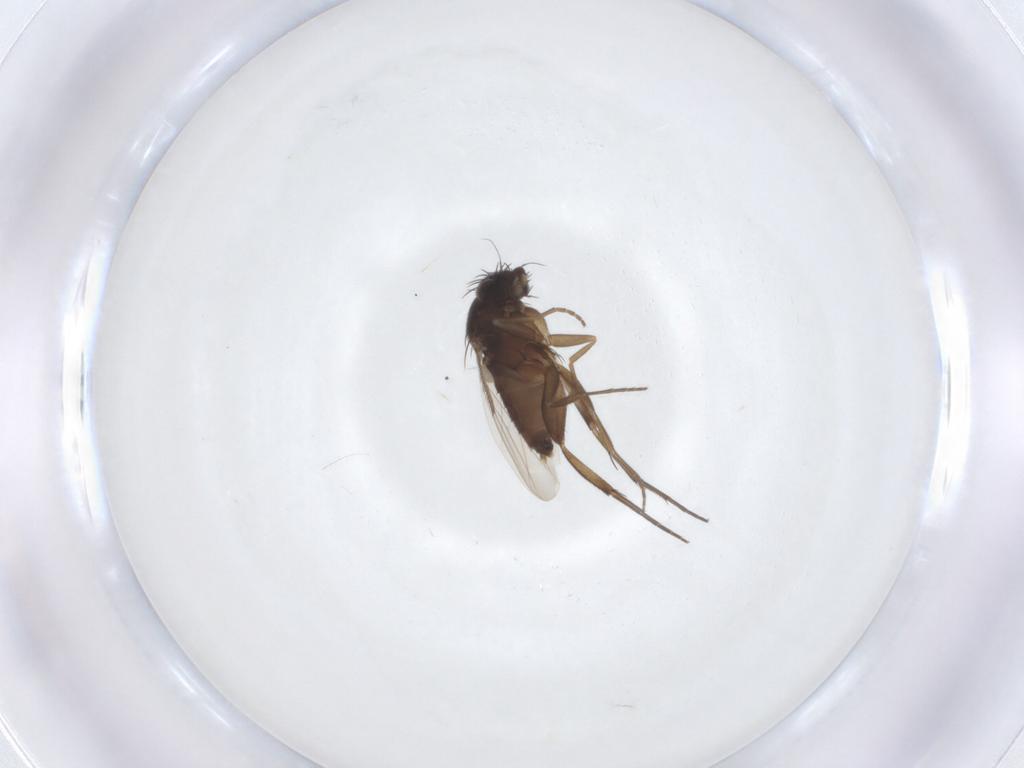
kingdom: Animalia
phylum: Arthropoda
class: Insecta
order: Diptera
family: Phoridae
